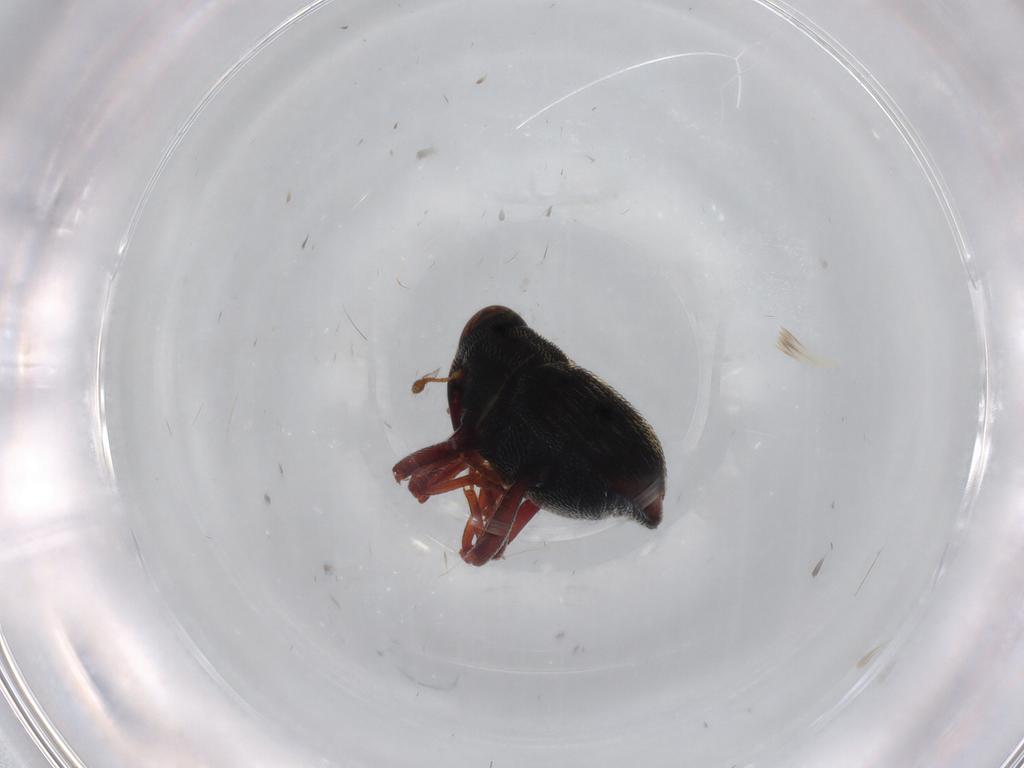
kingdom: Animalia
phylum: Arthropoda
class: Insecta
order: Coleoptera
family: Curculionidae
